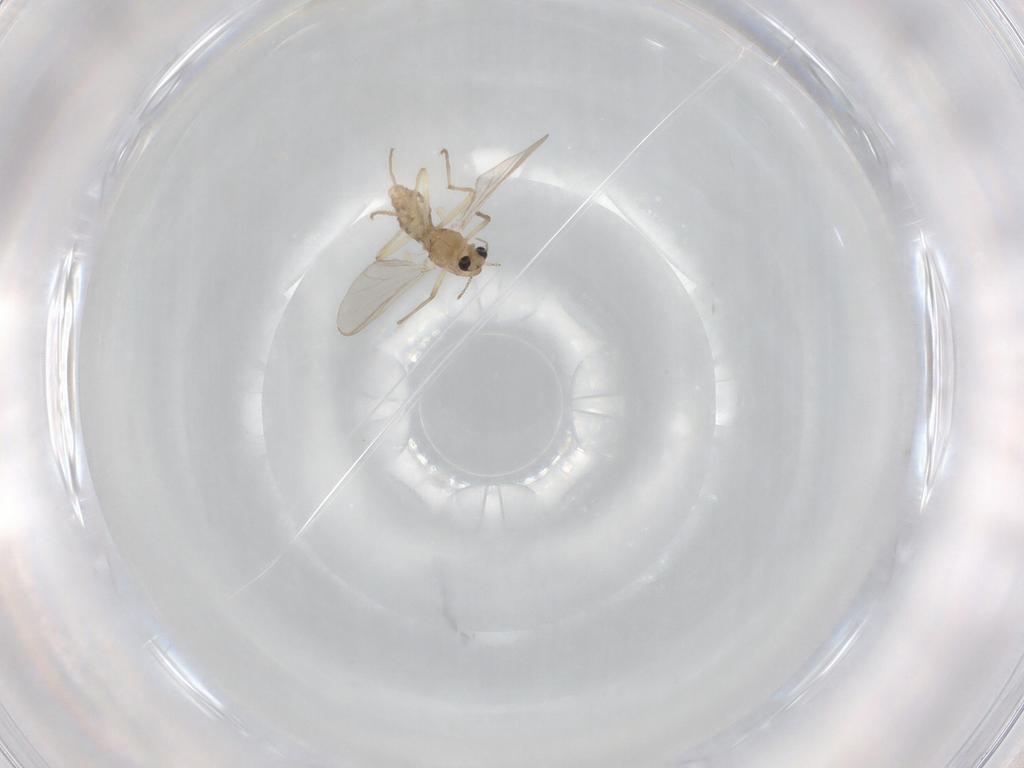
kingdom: Animalia
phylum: Arthropoda
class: Insecta
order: Diptera
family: Chironomidae
